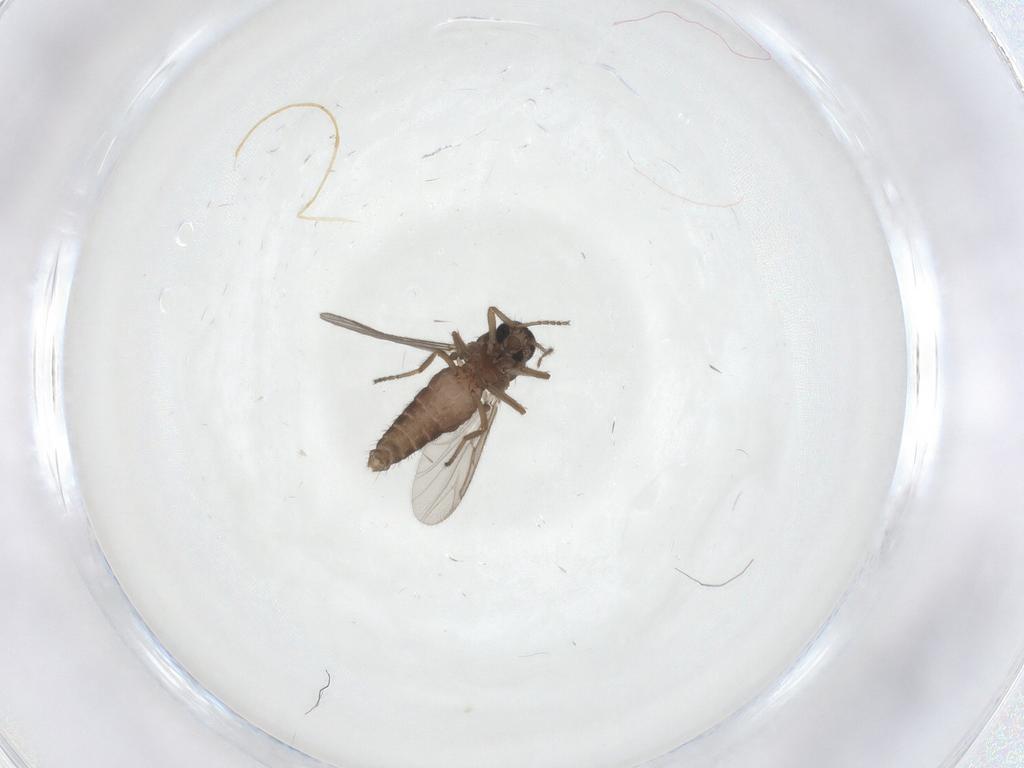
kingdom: Animalia
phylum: Arthropoda
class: Insecta
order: Diptera
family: Ceratopogonidae
